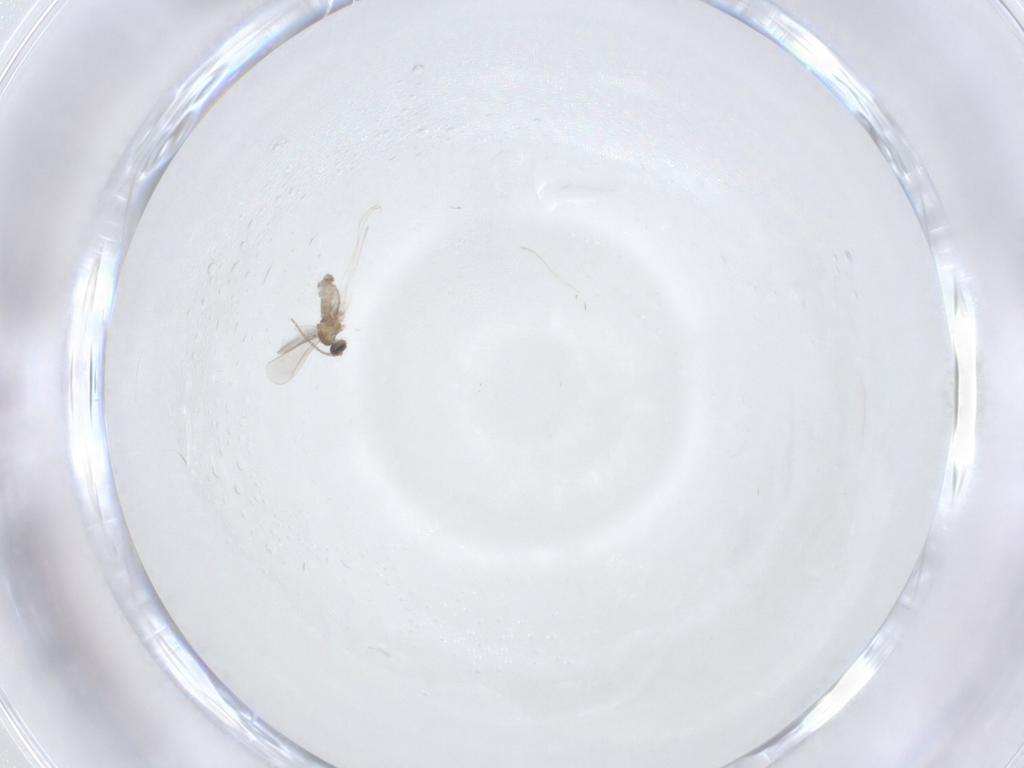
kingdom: Animalia
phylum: Arthropoda
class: Insecta
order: Diptera
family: Cecidomyiidae
